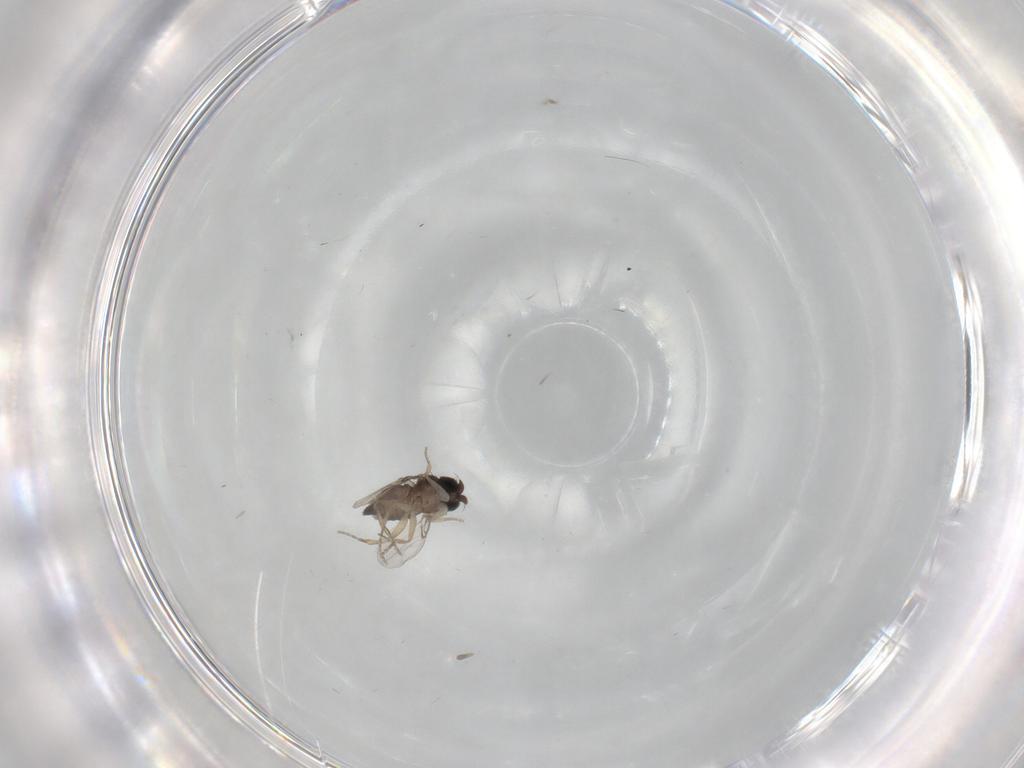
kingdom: Animalia
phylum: Arthropoda
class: Insecta
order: Diptera
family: Phoridae
